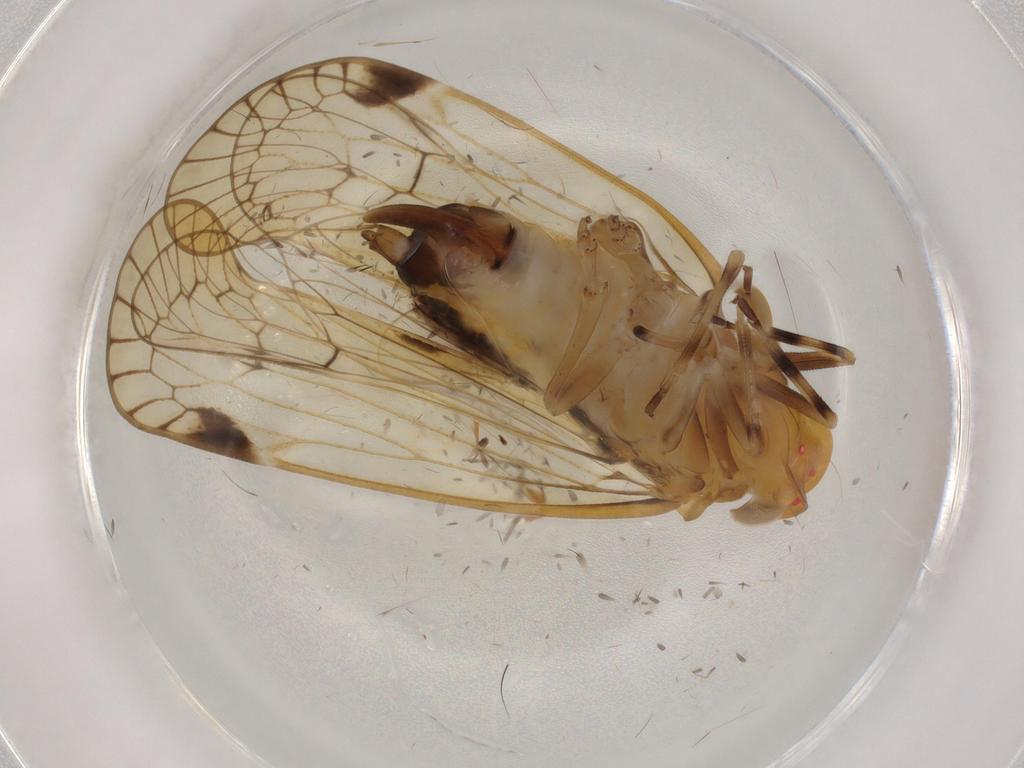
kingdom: Animalia
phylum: Arthropoda
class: Insecta
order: Hemiptera
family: Cixiidae
